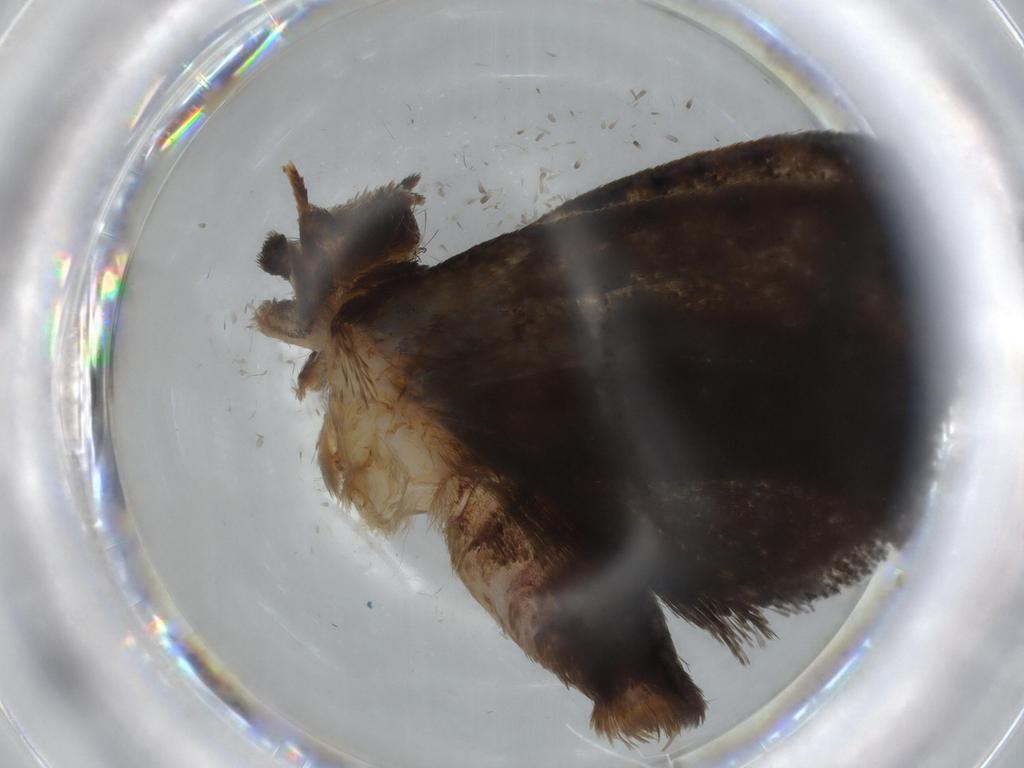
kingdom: Animalia
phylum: Arthropoda
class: Insecta
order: Lepidoptera
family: Tineidae
